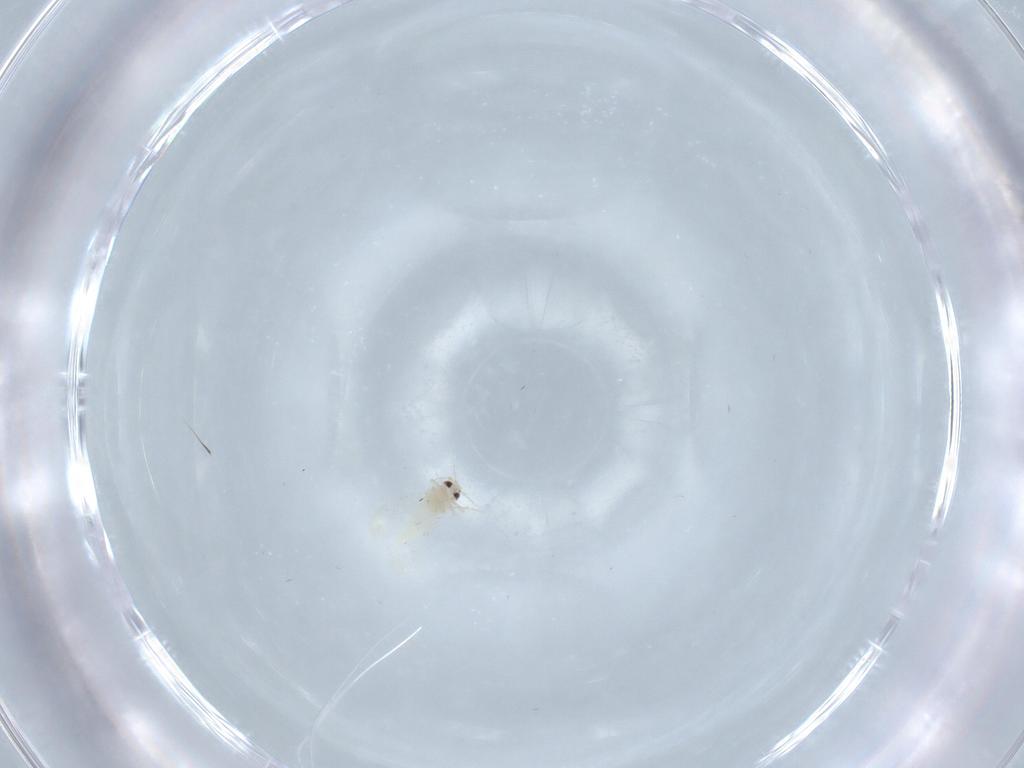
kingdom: Animalia
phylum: Arthropoda
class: Insecta
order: Hemiptera
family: Aleyrodidae
